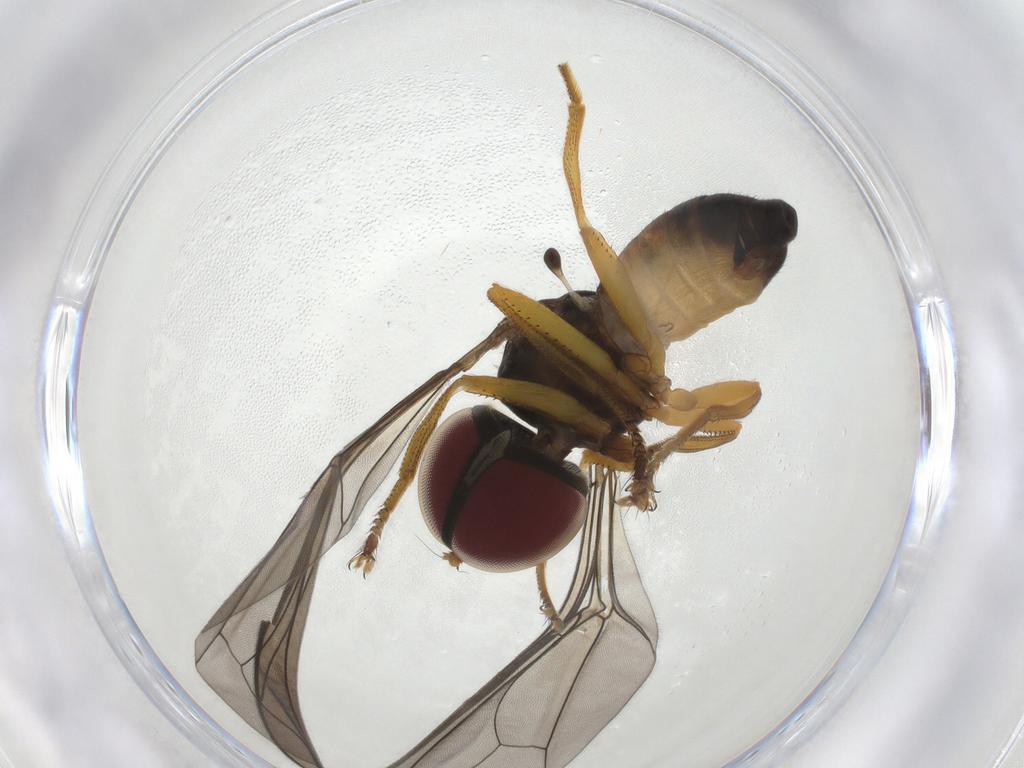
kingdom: Animalia
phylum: Arthropoda
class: Insecta
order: Diptera
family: Pipunculidae
